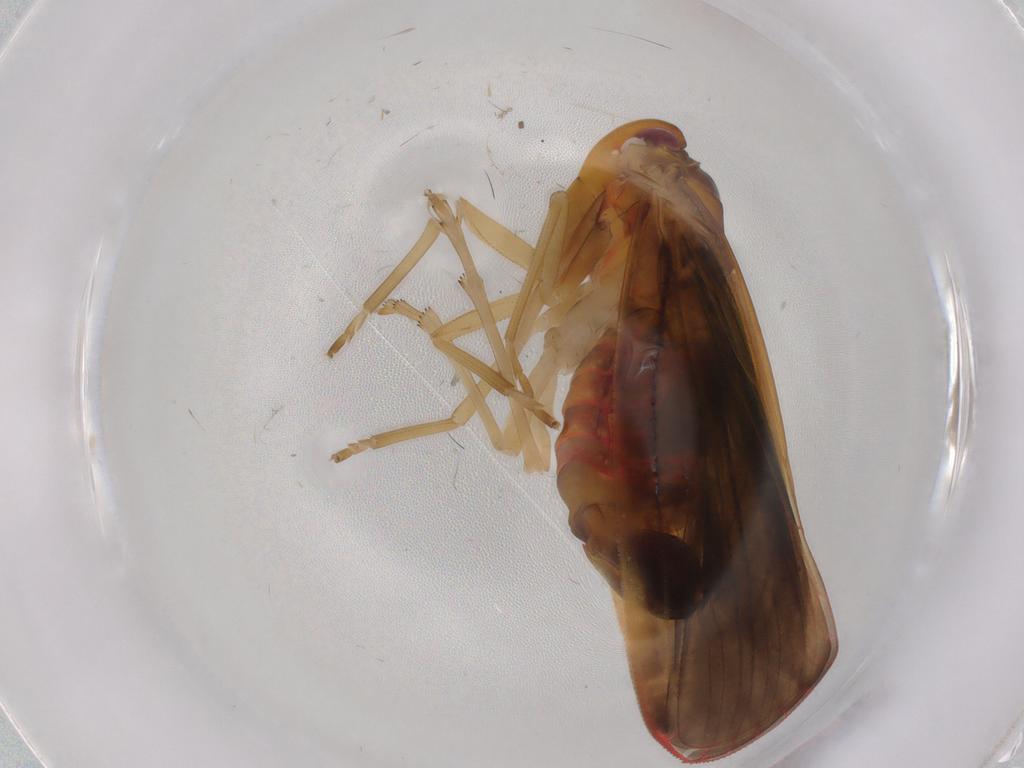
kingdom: Animalia
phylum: Arthropoda
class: Insecta
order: Hemiptera
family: Derbidae
